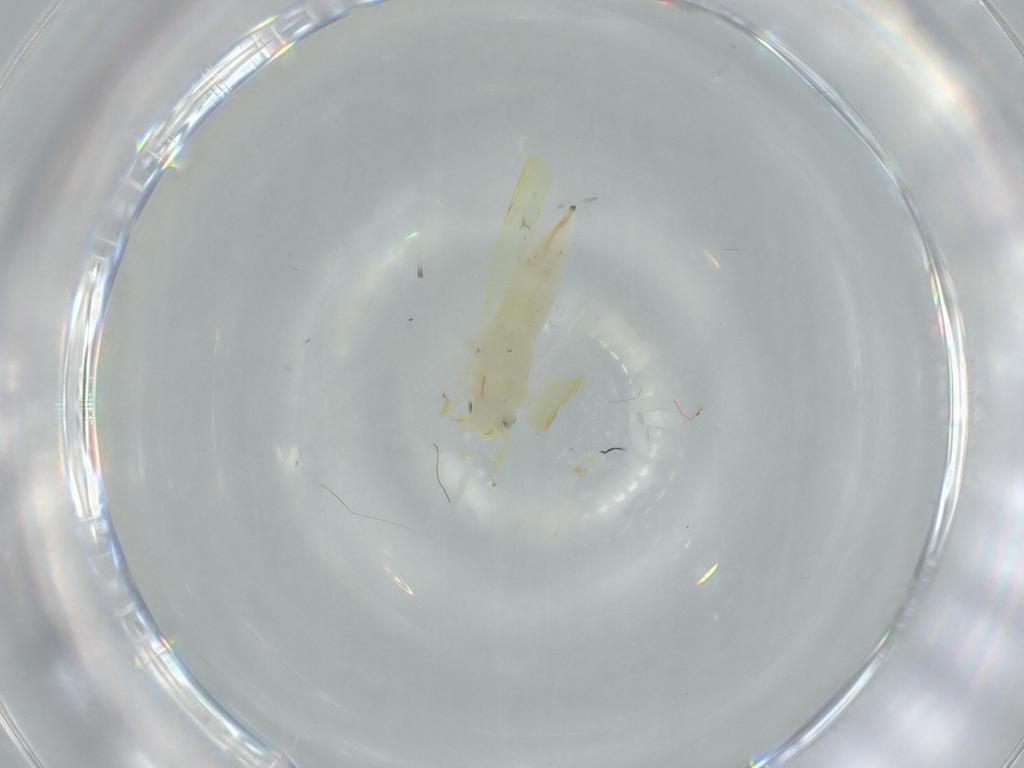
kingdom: Animalia
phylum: Arthropoda
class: Insecta
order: Hemiptera
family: Cicadellidae
